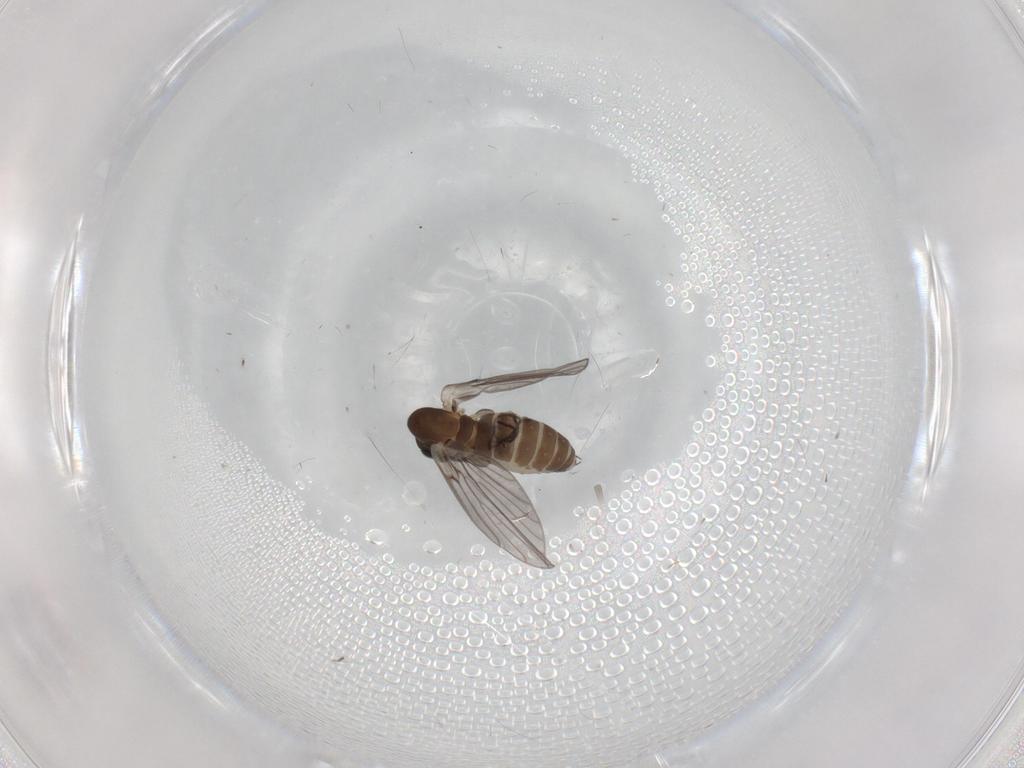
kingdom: Animalia
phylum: Arthropoda
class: Insecta
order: Diptera
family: Psychodidae
